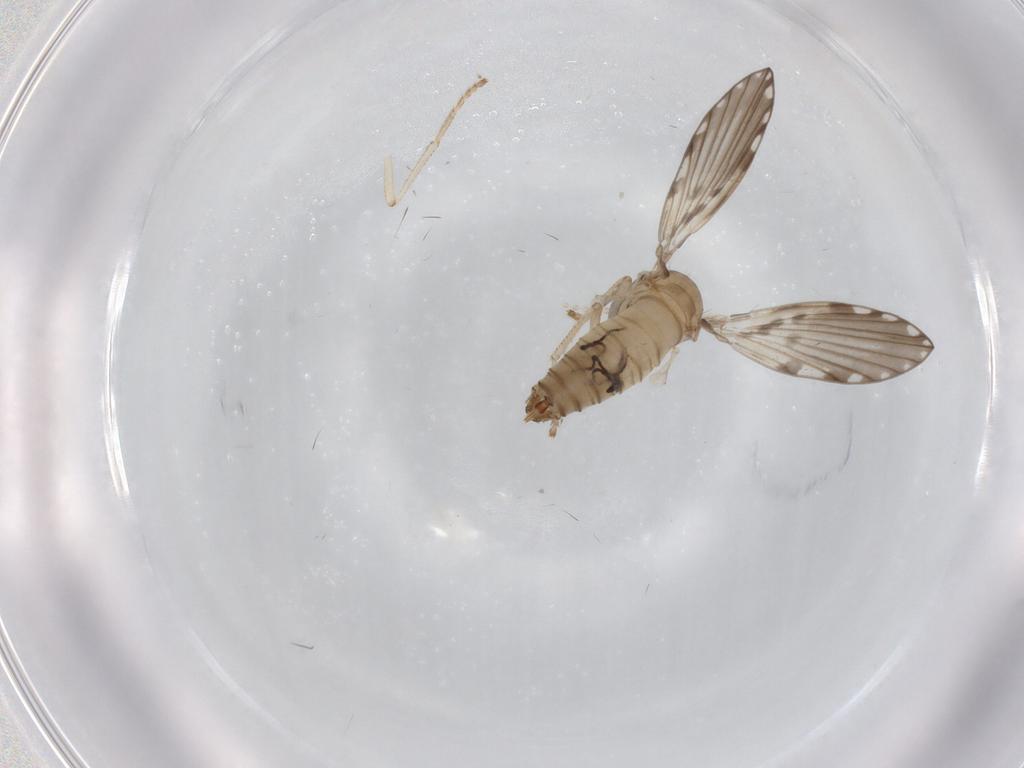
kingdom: Animalia
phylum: Arthropoda
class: Insecta
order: Diptera
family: Psychodidae
